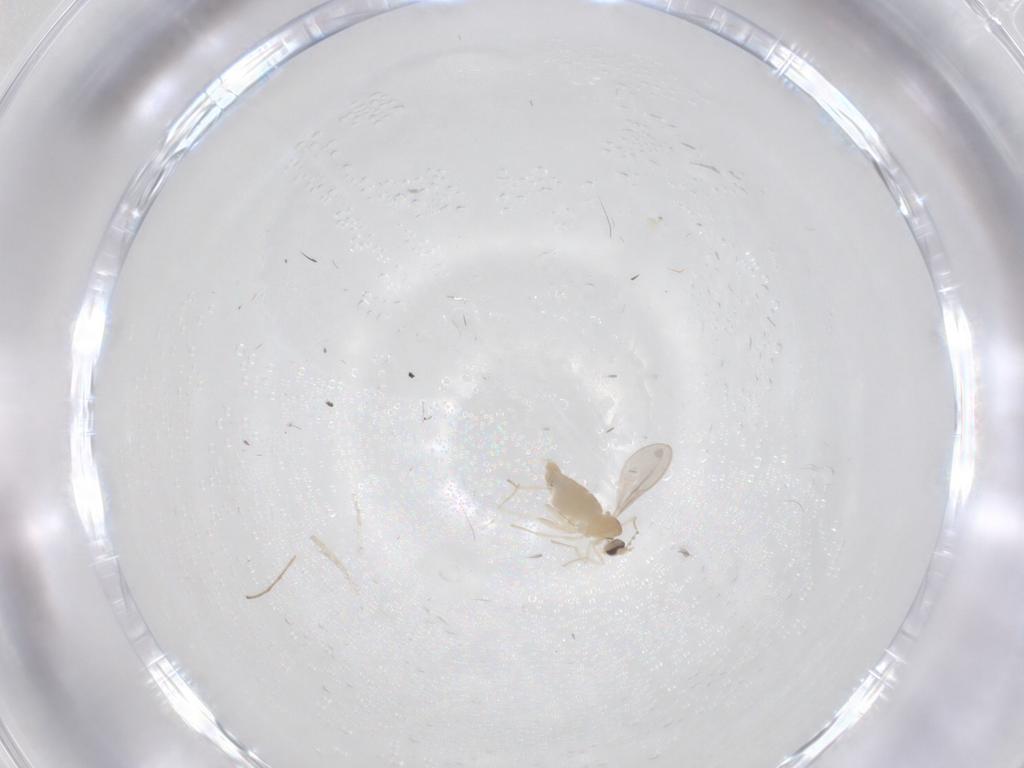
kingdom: Animalia
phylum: Arthropoda
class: Insecta
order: Diptera
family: Cecidomyiidae
